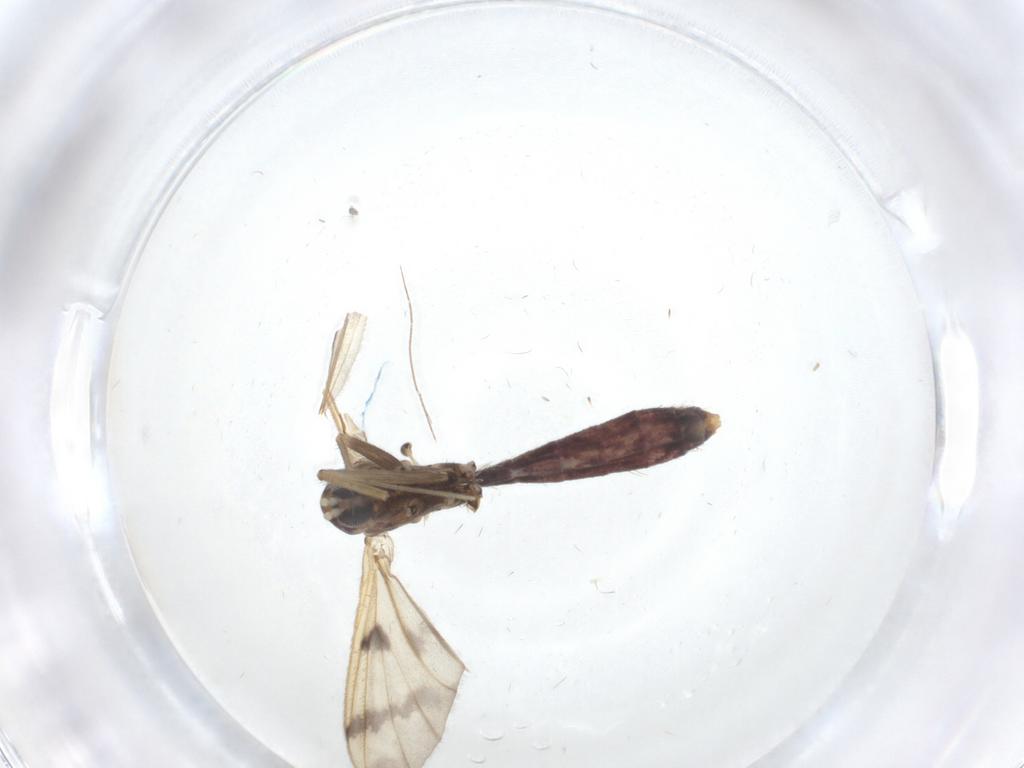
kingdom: Animalia
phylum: Arthropoda
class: Insecta
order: Diptera
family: Mycetophilidae
